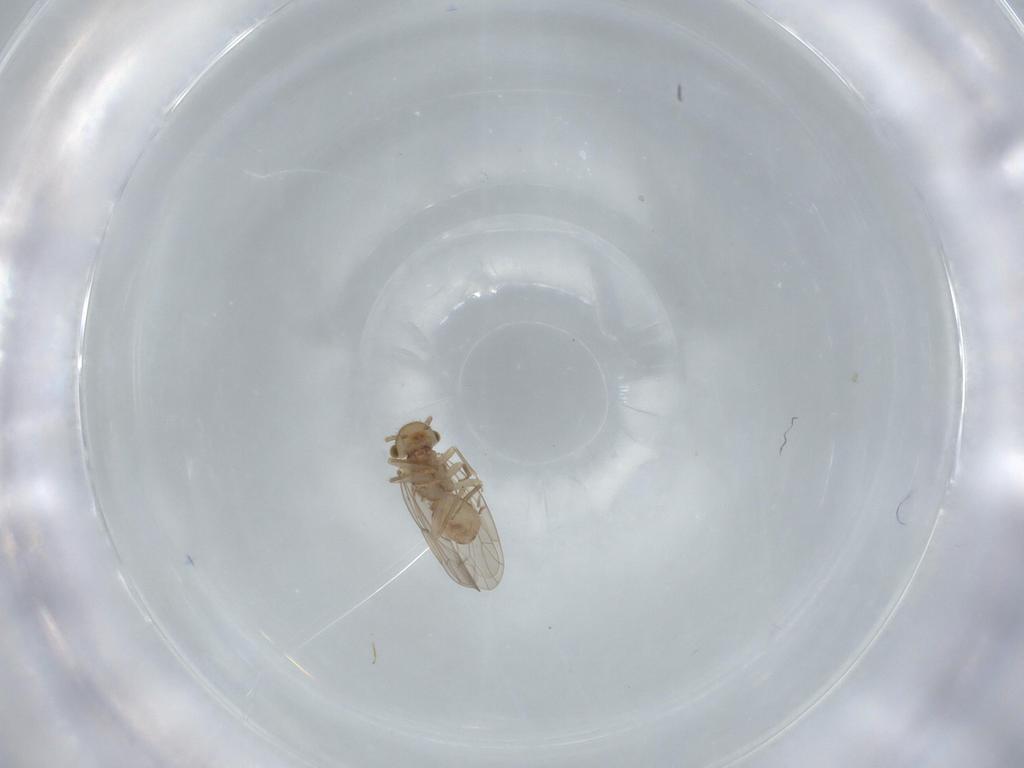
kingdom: Animalia
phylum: Arthropoda
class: Insecta
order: Psocodea
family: Ectopsocidae
